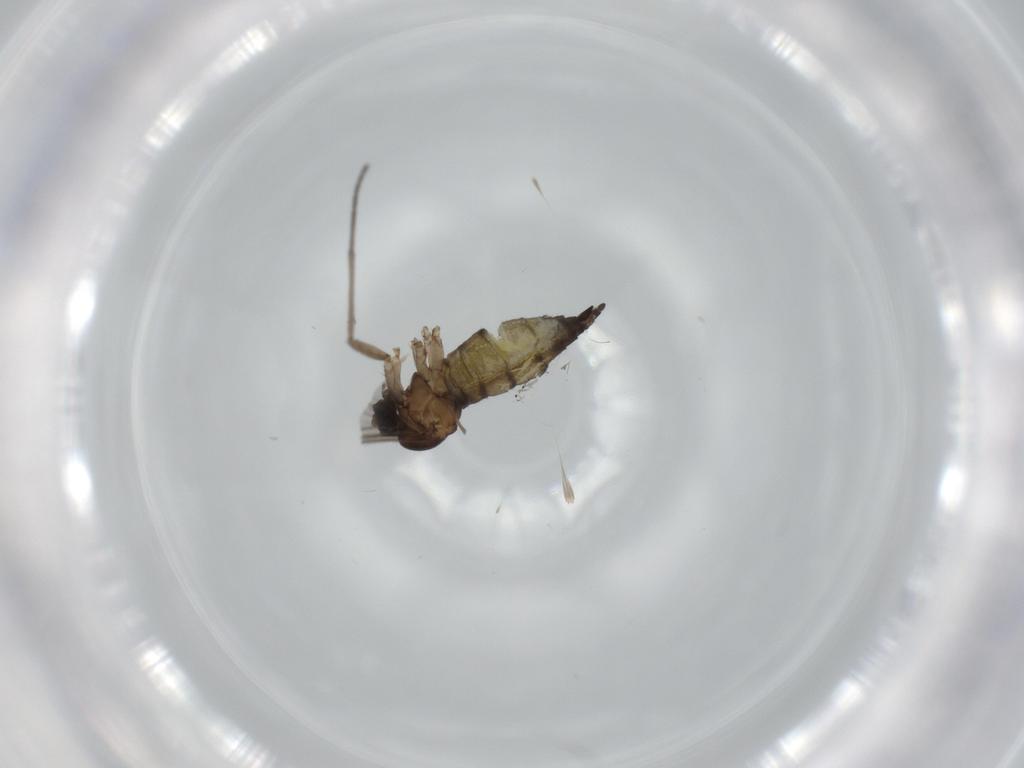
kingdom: Animalia
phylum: Arthropoda
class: Insecta
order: Diptera
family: Sciaridae
